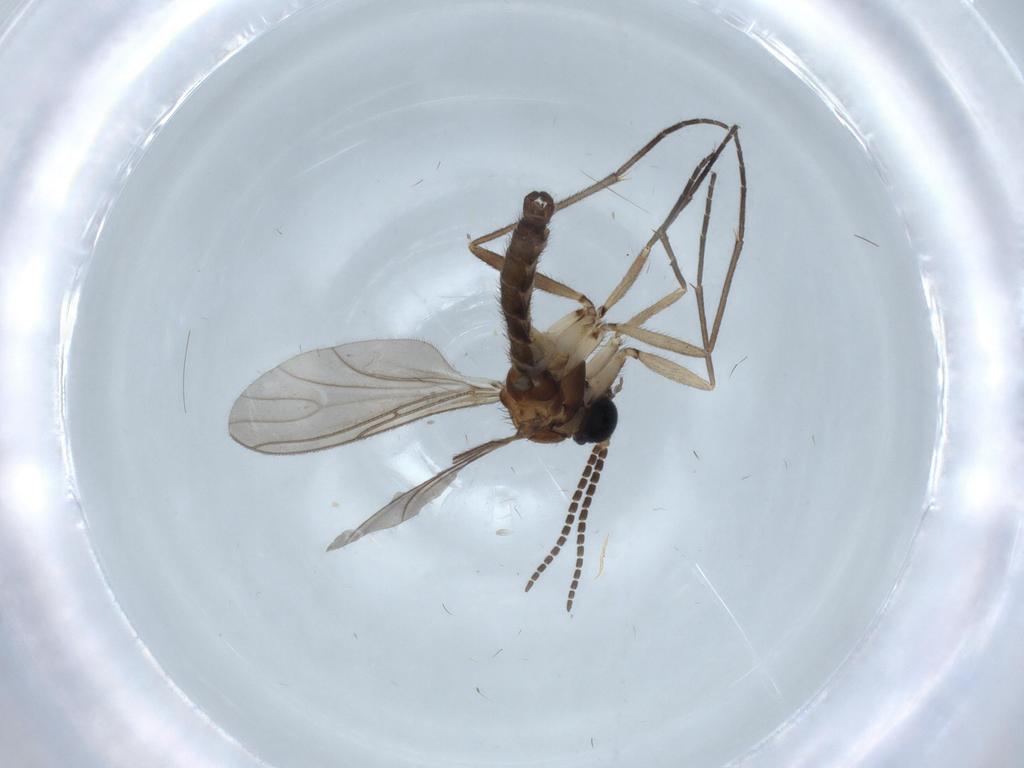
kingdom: Animalia
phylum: Arthropoda
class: Insecta
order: Diptera
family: Sciaridae
